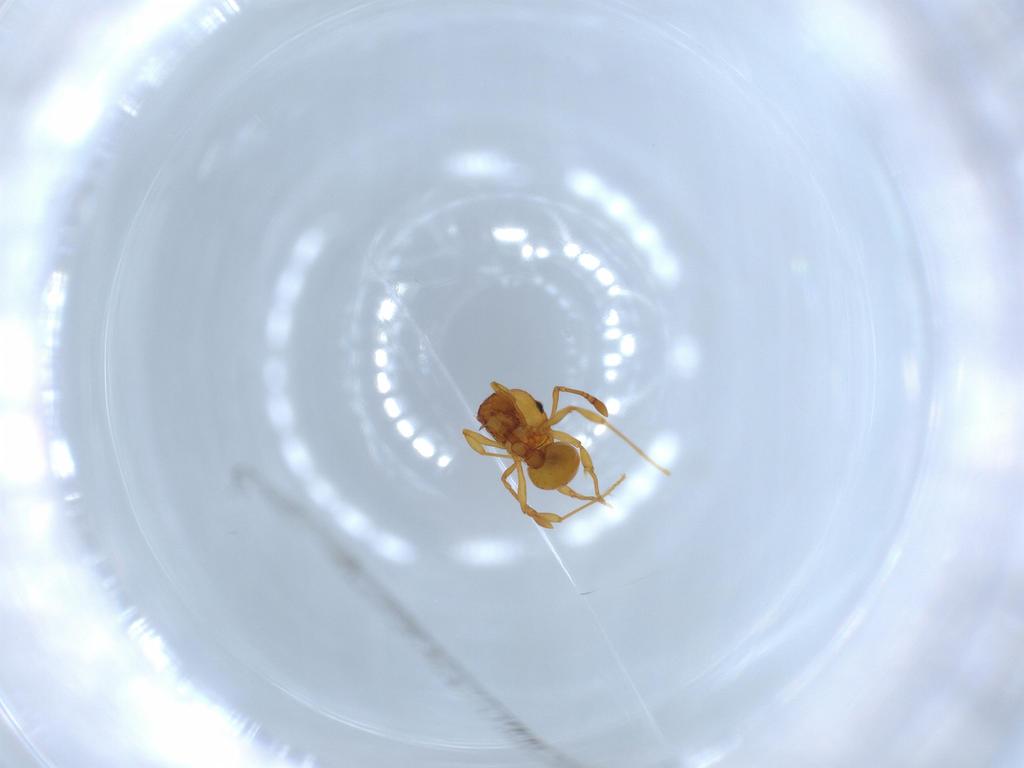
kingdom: Animalia
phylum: Arthropoda
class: Insecta
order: Hymenoptera
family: Formicidae
